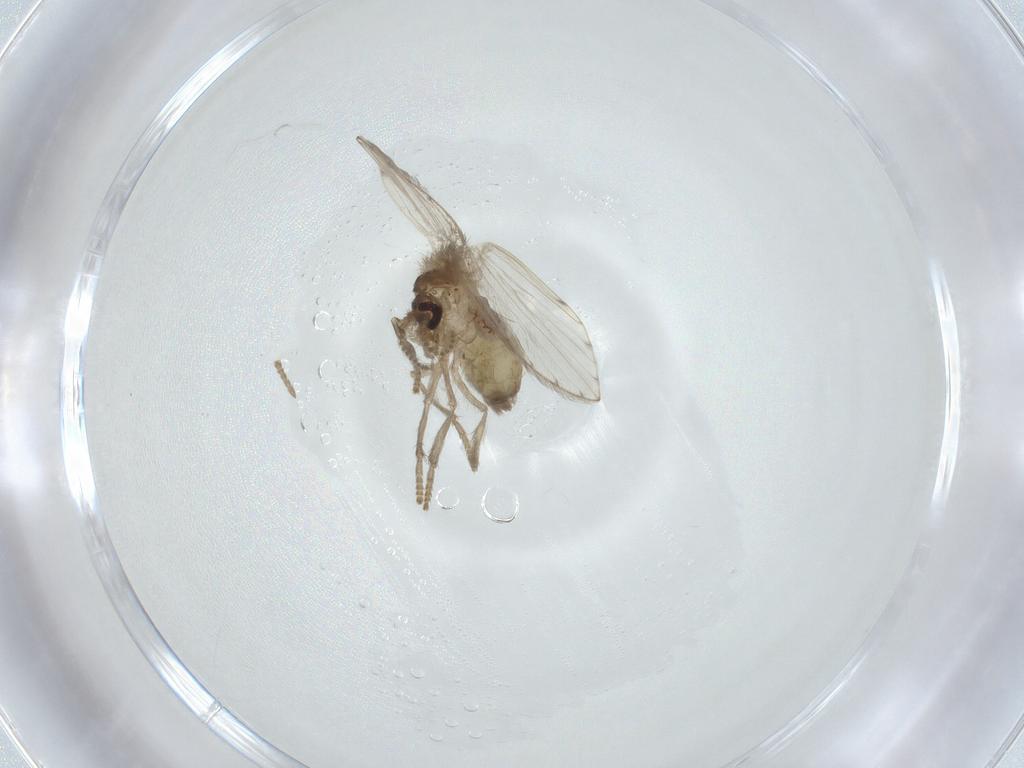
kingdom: Animalia
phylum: Arthropoda
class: Insecta
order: Diptera
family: Psychodidae
